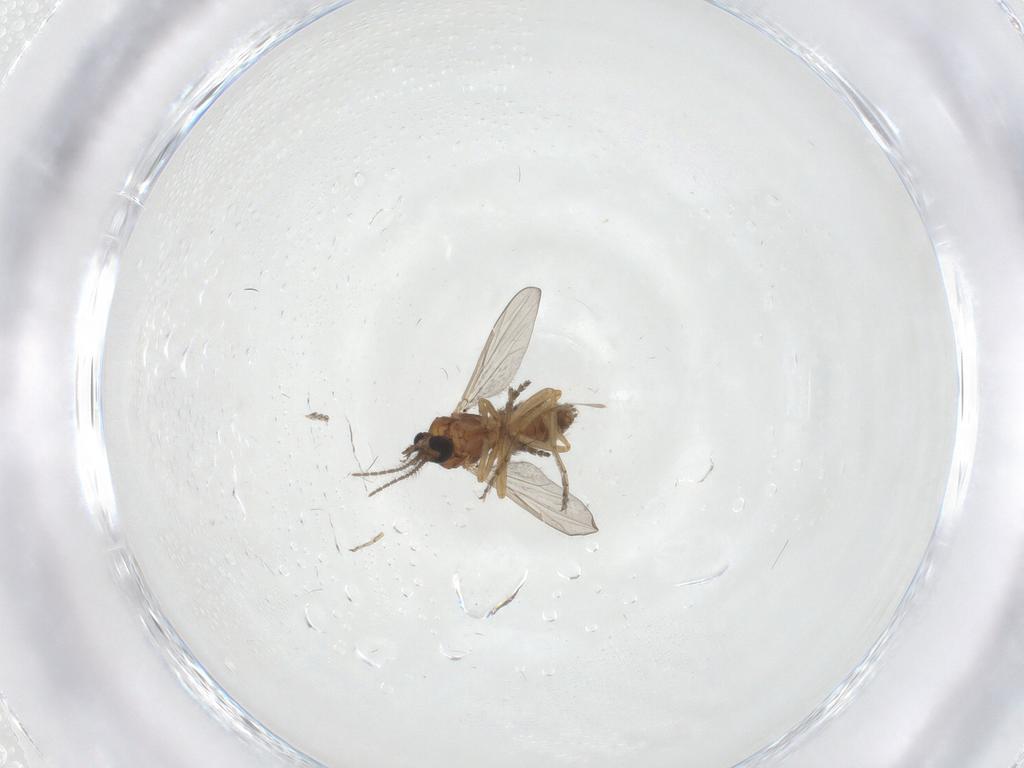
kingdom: Animalia
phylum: Arthropoda
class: Insecta
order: Diptera
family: Ceratopogonidae
